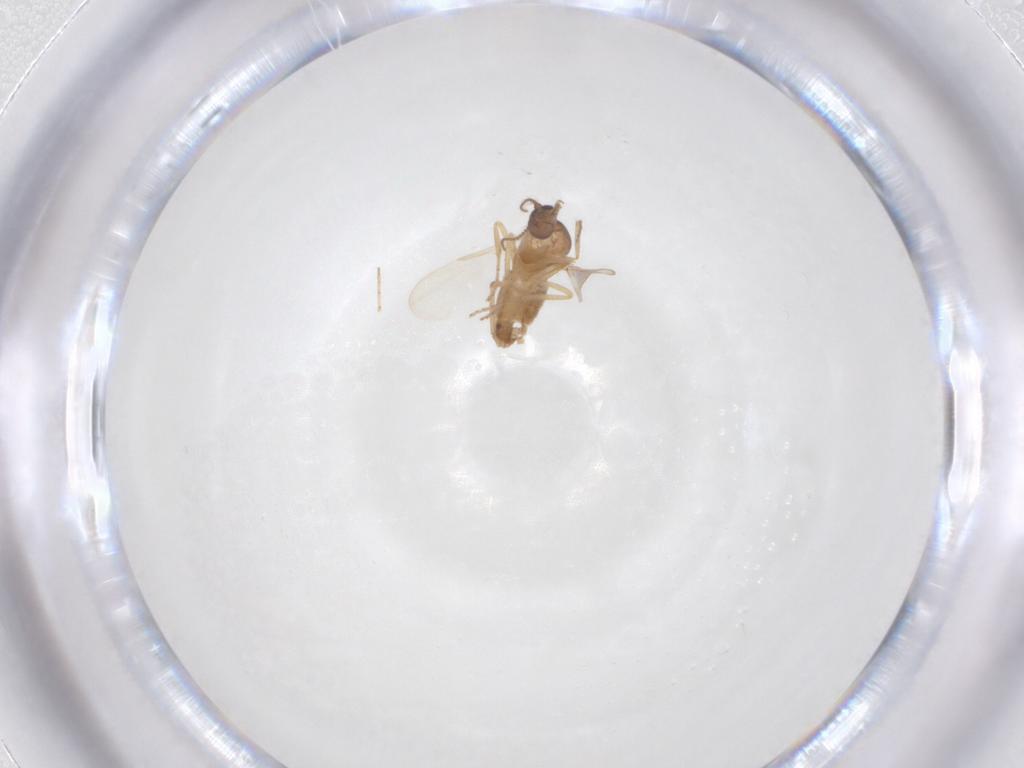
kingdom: Animalia
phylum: Arthropoda
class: Insecta
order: Diptera
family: Ceratopogonidae
